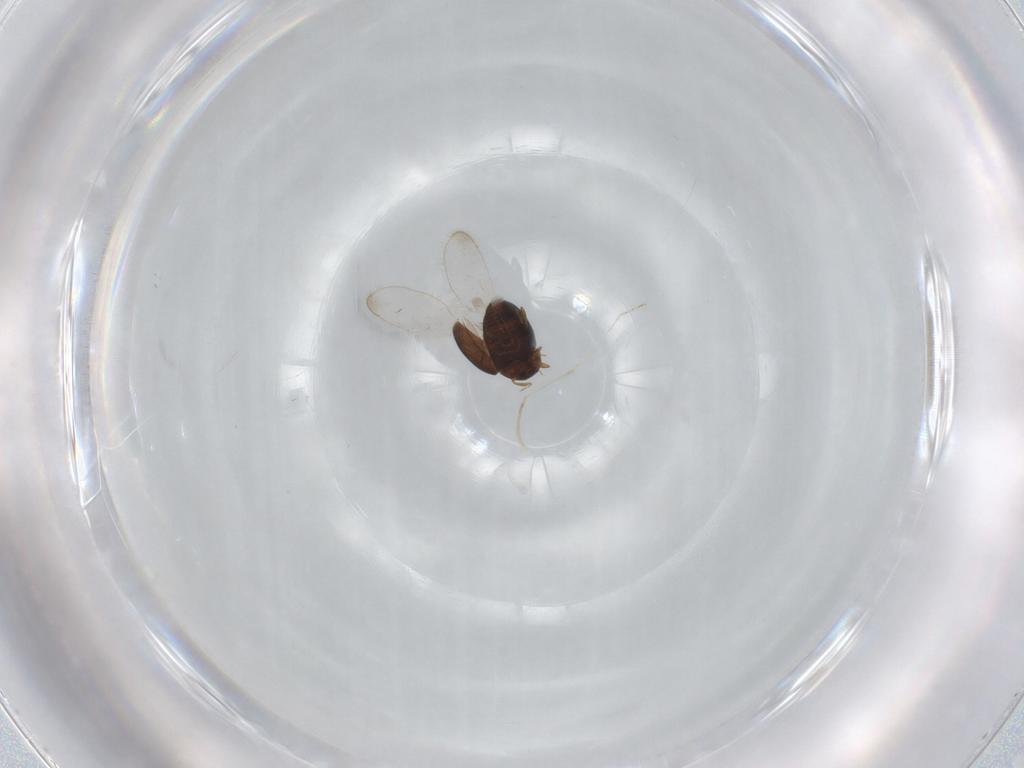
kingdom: Animalia
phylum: Arthropoda
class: Insecta
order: Coleoptera
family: Corylophidae
